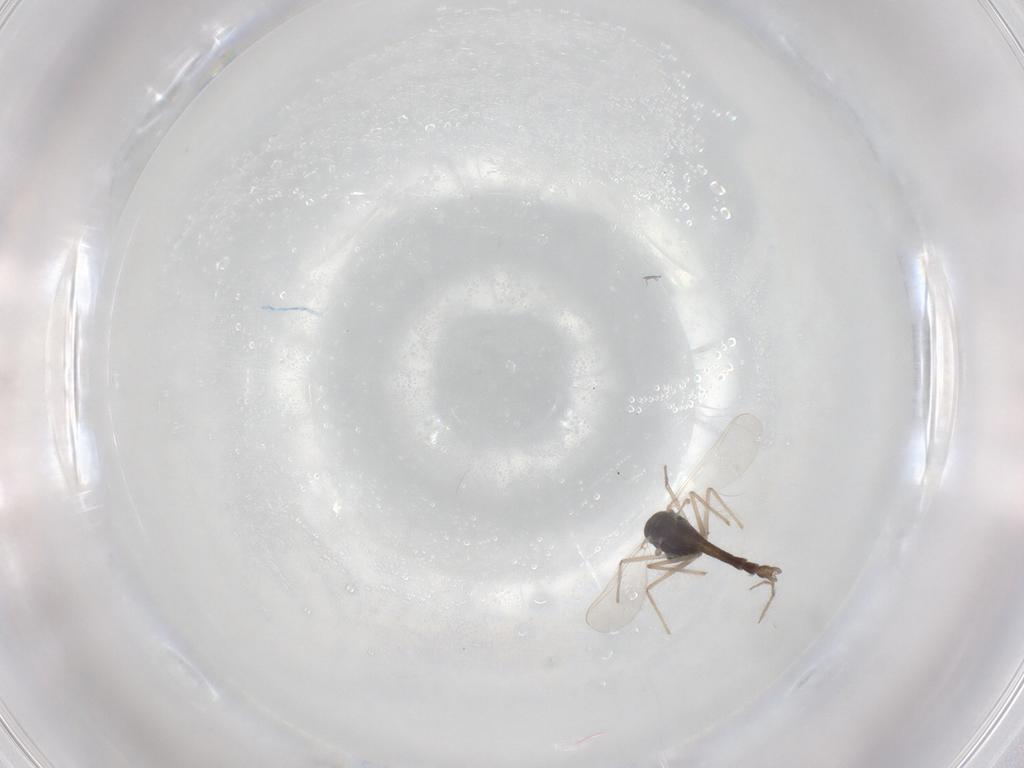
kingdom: Animalia
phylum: Arthropoda
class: Insecta
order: Diptera
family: Chironomidae
